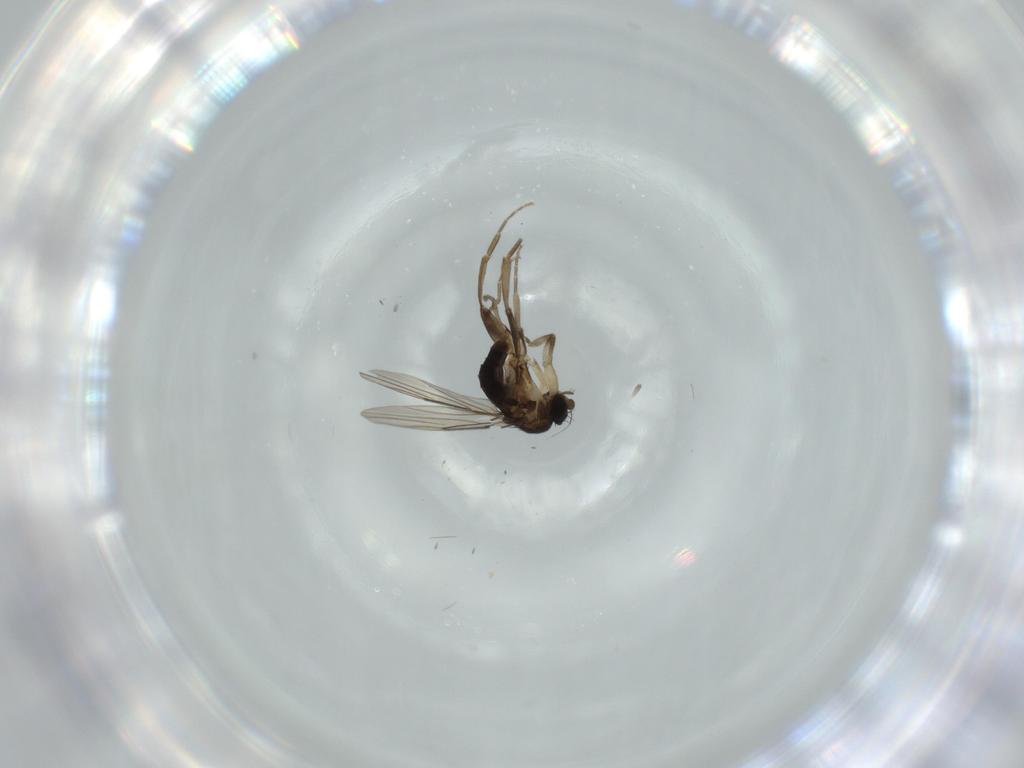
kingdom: Animalia
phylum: Arthropoda
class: Insecta
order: Diptera
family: Phoridae
